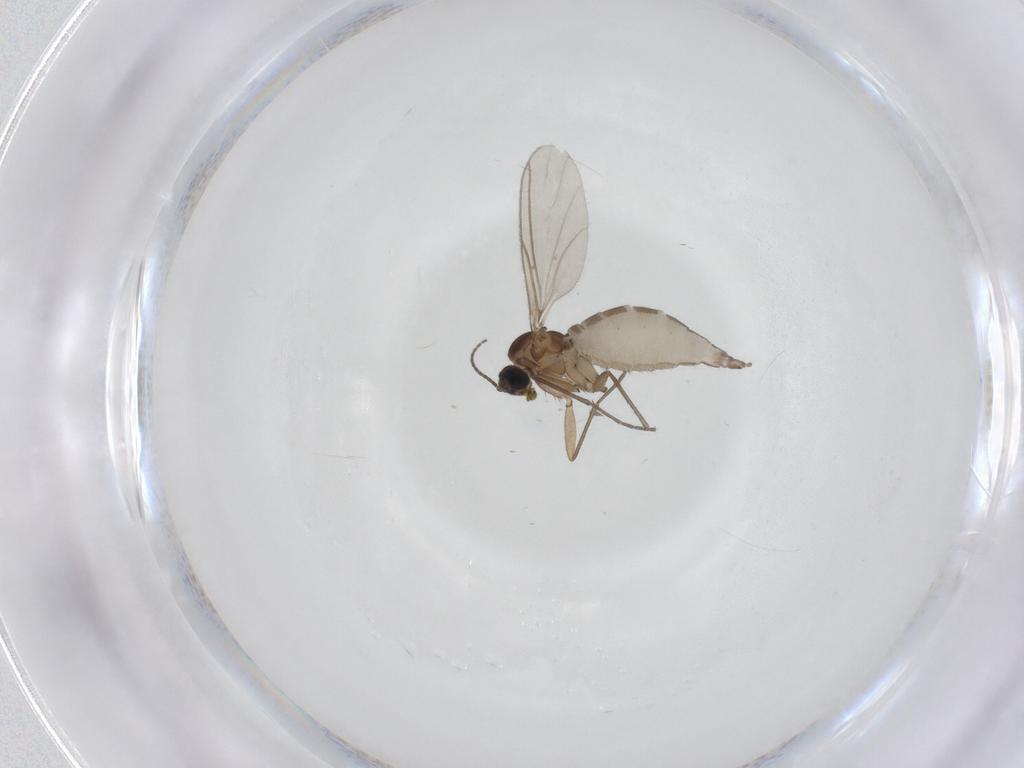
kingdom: Animalia
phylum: Arthropoda
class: Insecta
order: Diptera
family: Sciaridae
